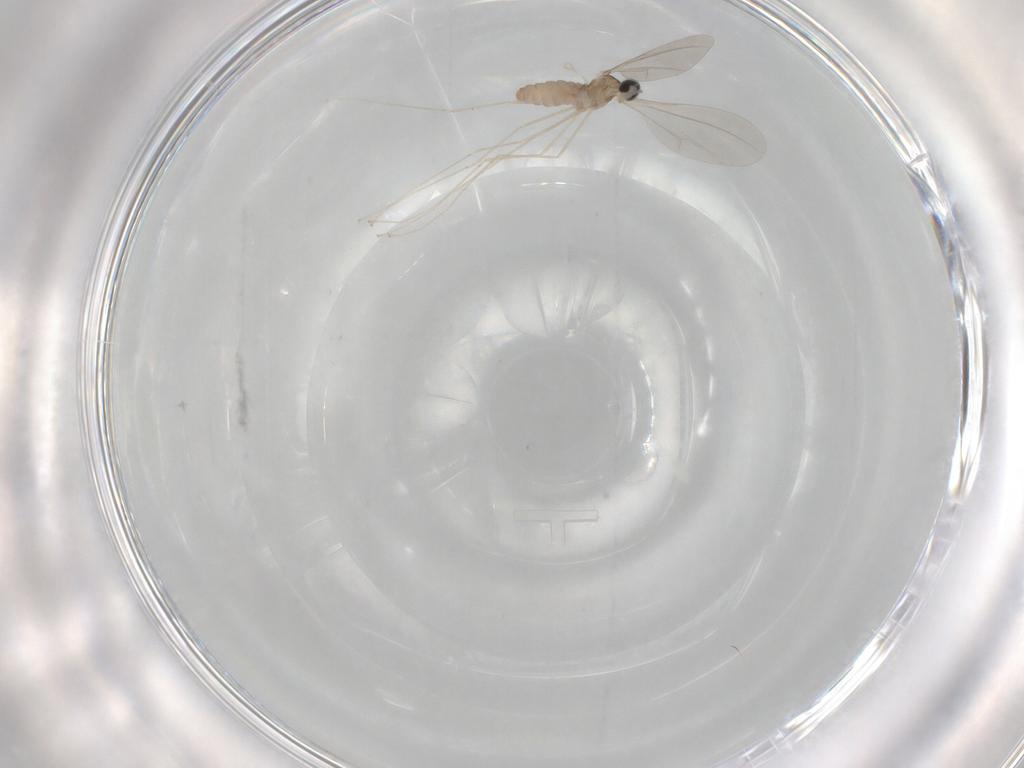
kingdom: Animalia
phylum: Arthropoda
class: Insecta
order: Diptera
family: Cecidomyiidae
